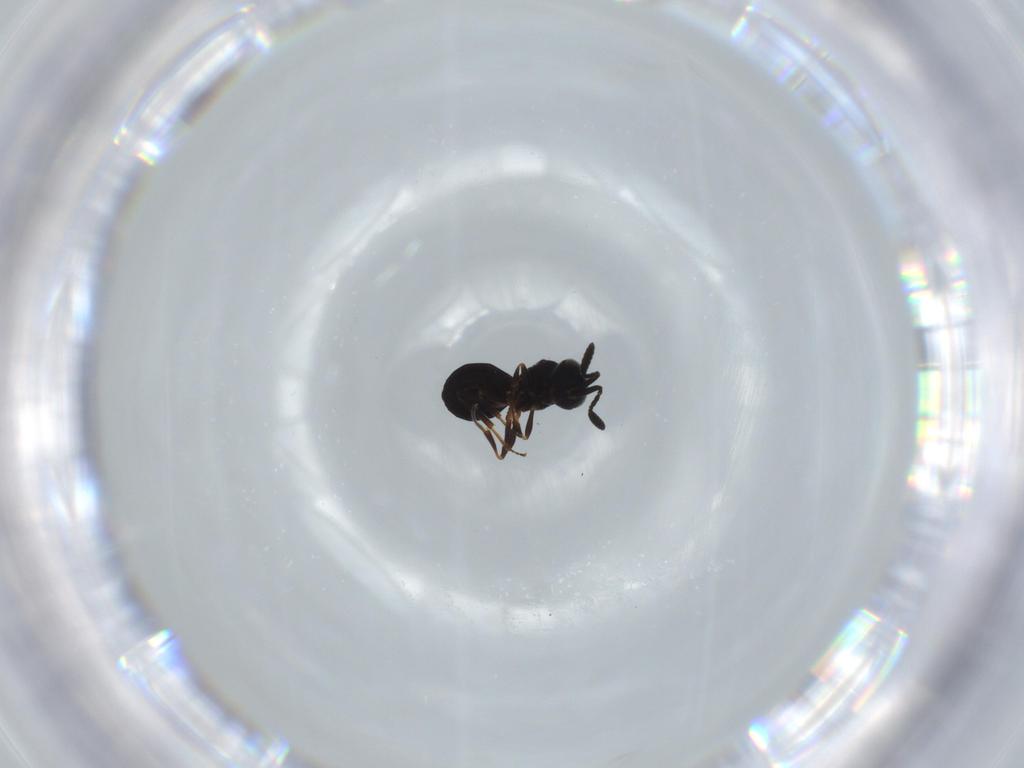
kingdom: Animalia
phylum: Arthropoda
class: Insecta
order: Hymenoptera
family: Scelionidae
